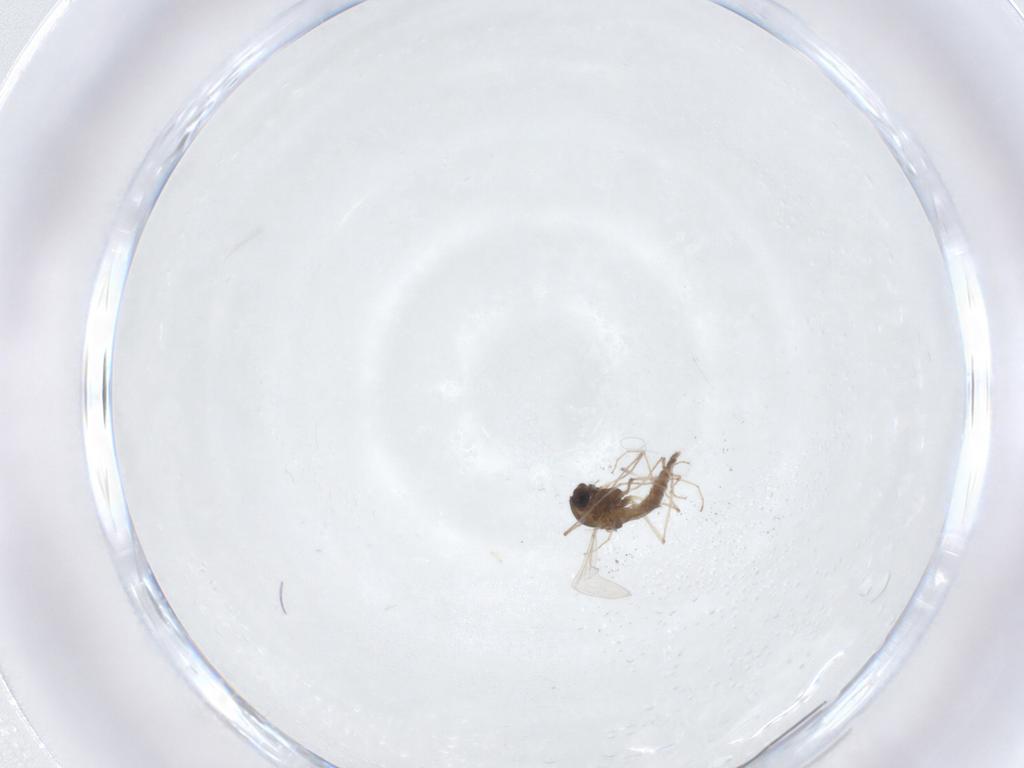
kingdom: Animalia
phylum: Arthropoda
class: Insecta
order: Diptera
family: Chironomidae
